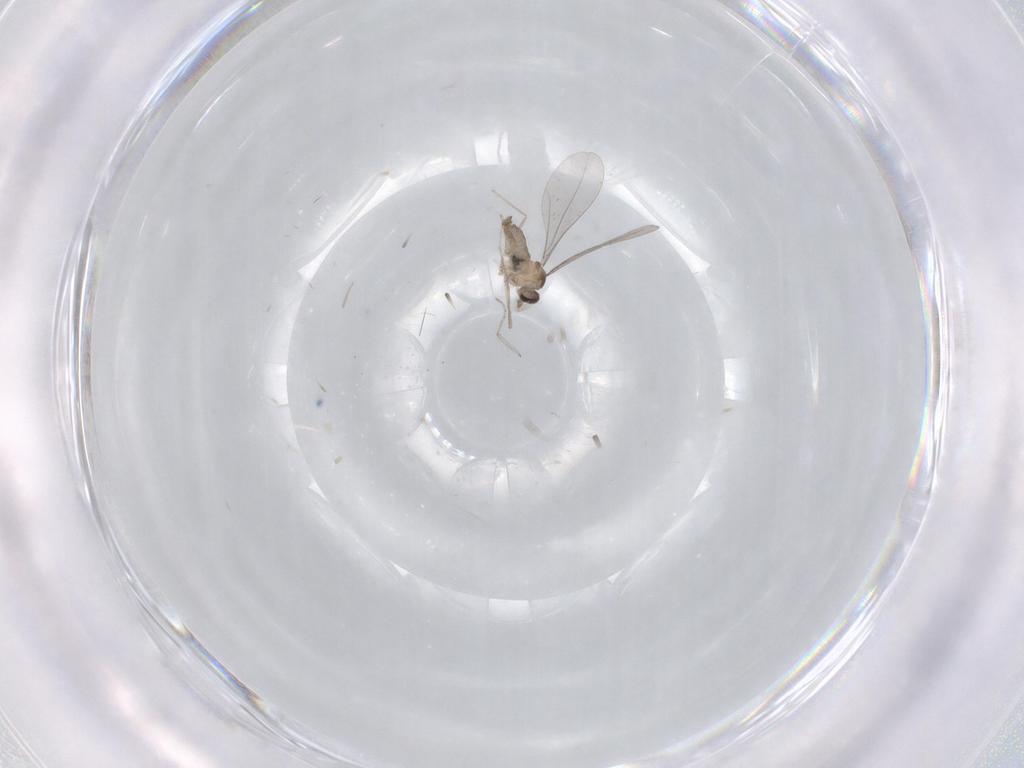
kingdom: Animalia
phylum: Arthropoda
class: Insecta
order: Diptera
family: Cecidomyiidae
